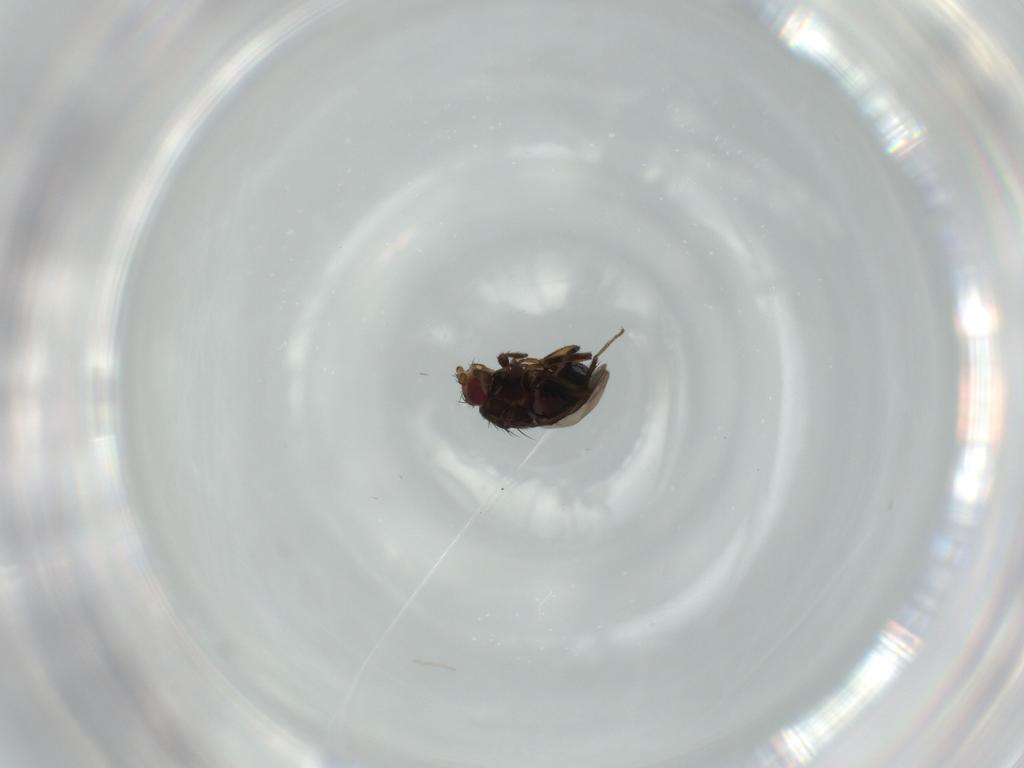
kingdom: Animalia
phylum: Arthropoda
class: Insecta
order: Diptera
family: Sphaeroceridae
